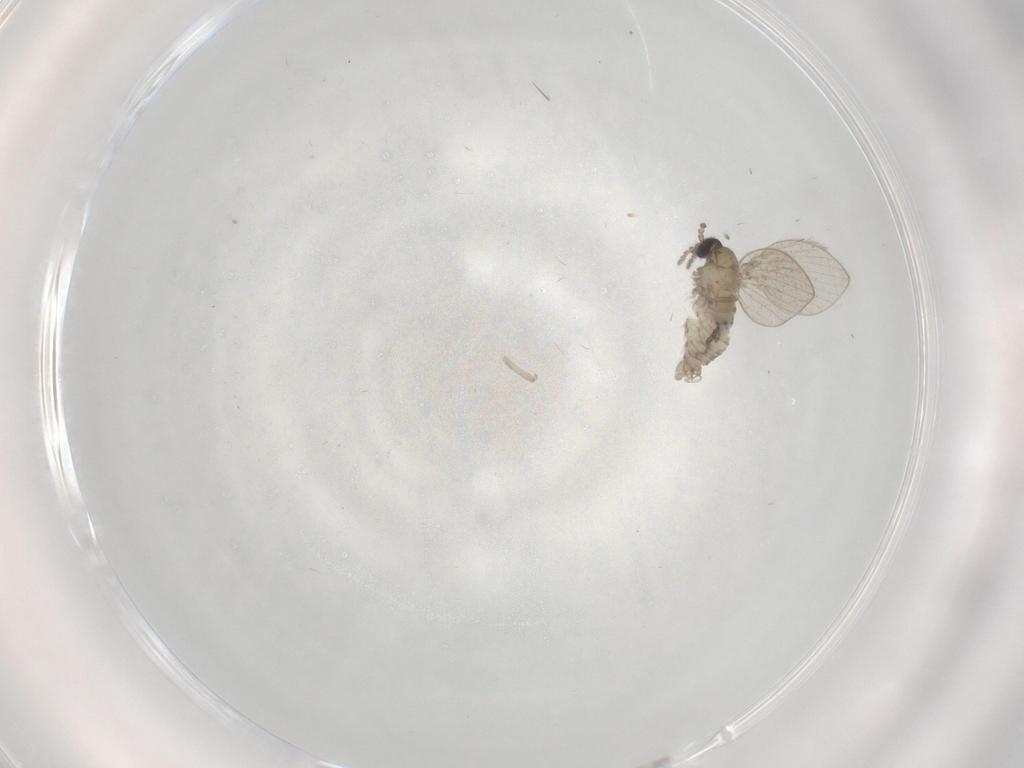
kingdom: Animalia
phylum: Arthropoda
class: Insecta
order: Diptera
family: Psychodidae
